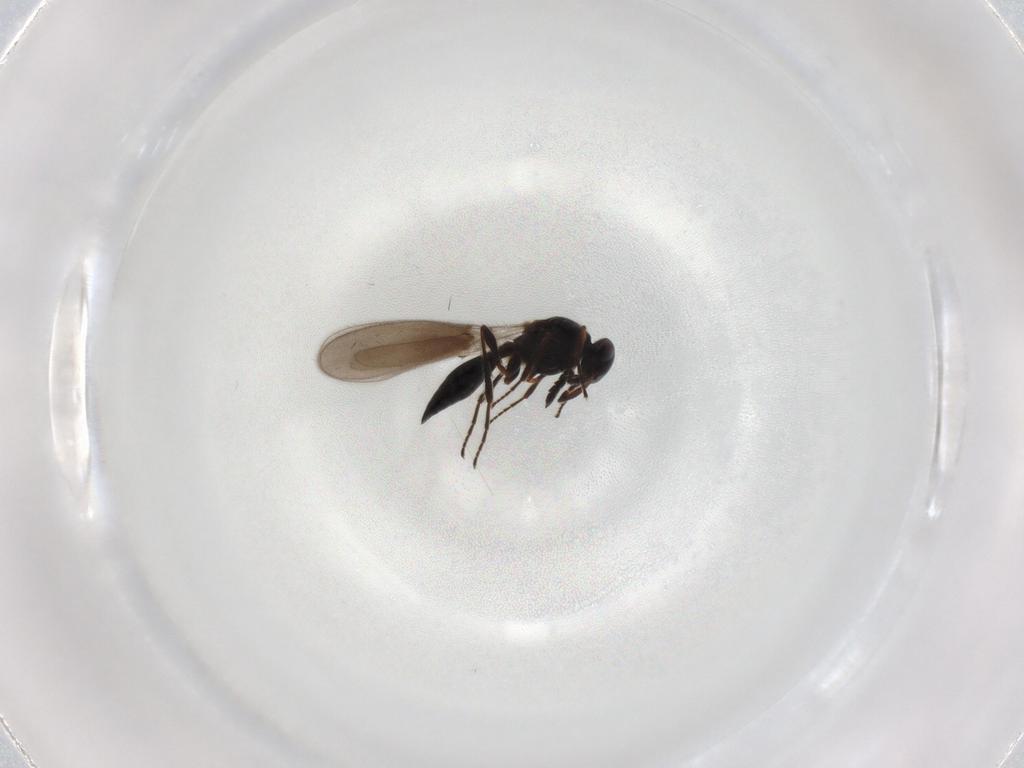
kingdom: Animalia
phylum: Arthropoda
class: Insecta
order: Hymenoptera
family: Platygastridae
